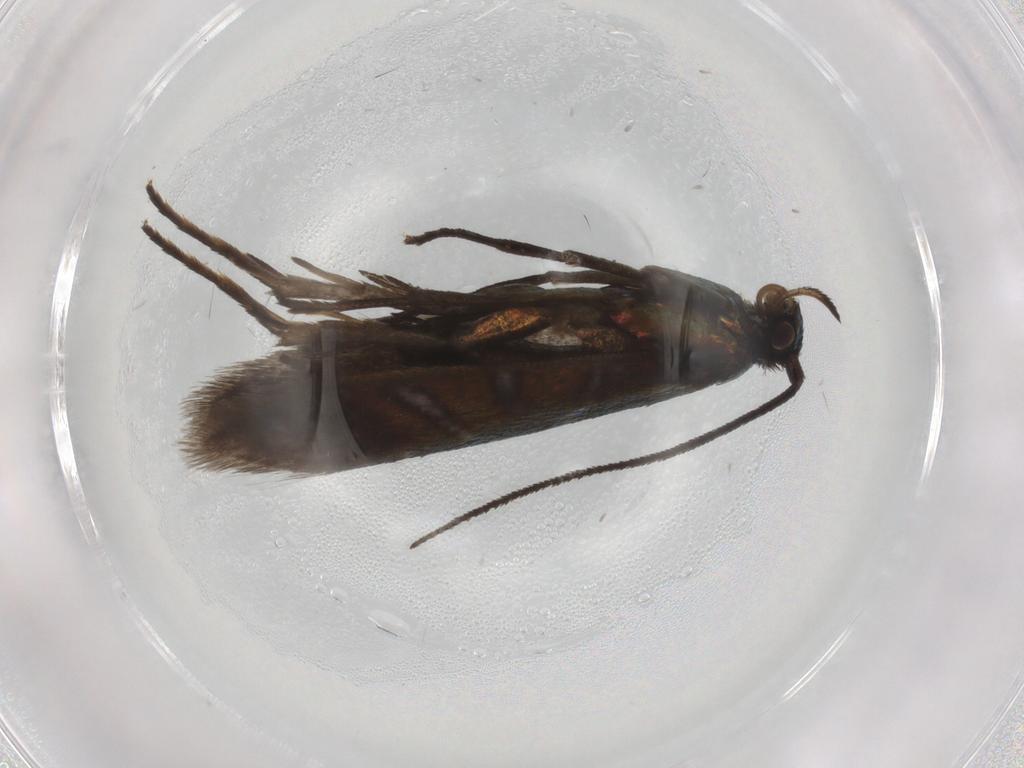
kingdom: Animalia
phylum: Arthropoda
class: Insecta
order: Lepidoptera
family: Argyresthiidae
